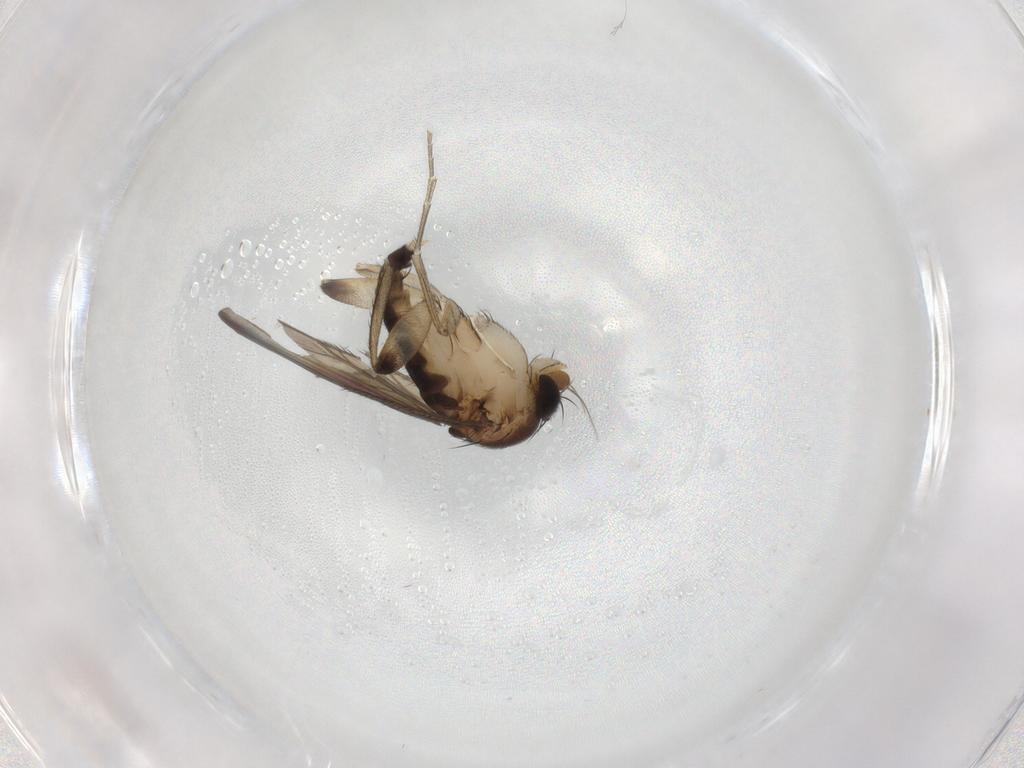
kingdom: Animalia
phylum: Arthropoda
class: Insecta
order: Diptera
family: Phoridae
